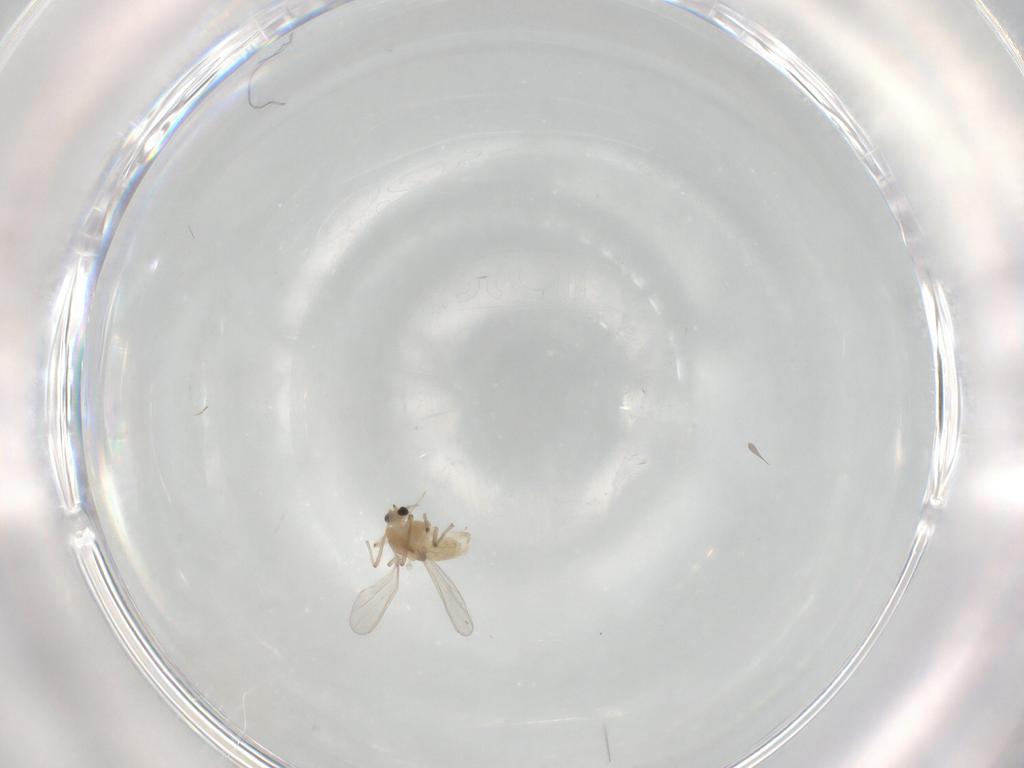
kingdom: Animalia
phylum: Arthropoda
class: Insecta
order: Diptera
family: Chironomidae
